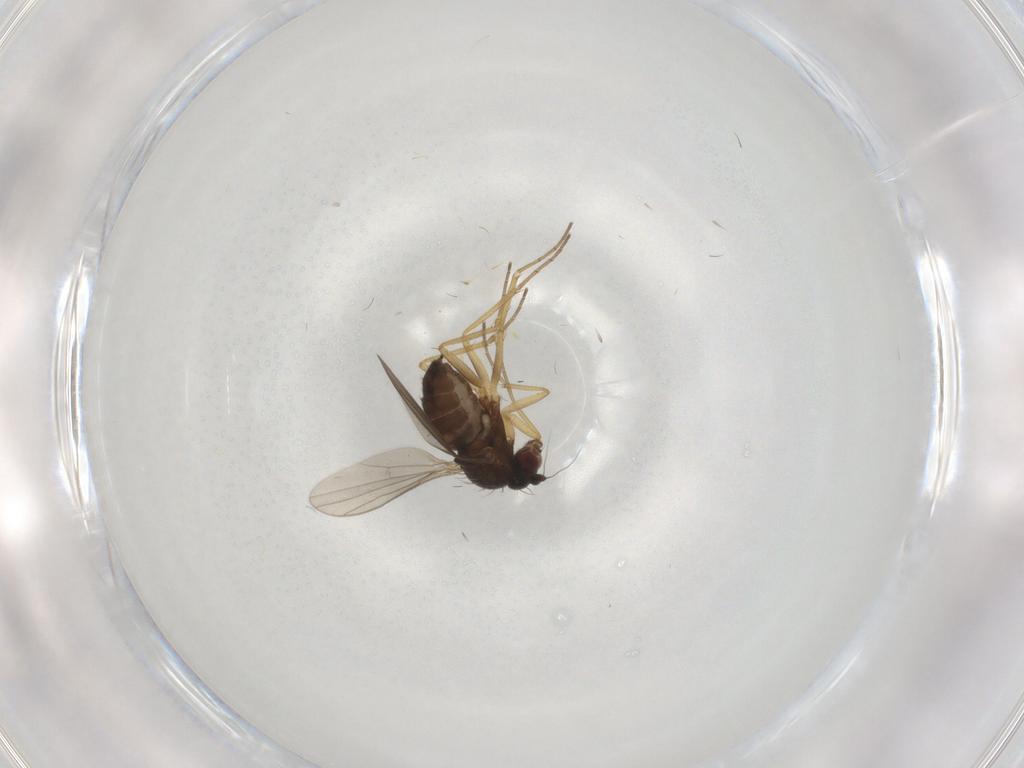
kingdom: Animalia
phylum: Arthropoda
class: Insecta
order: Diptera
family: Dolichopodidae
